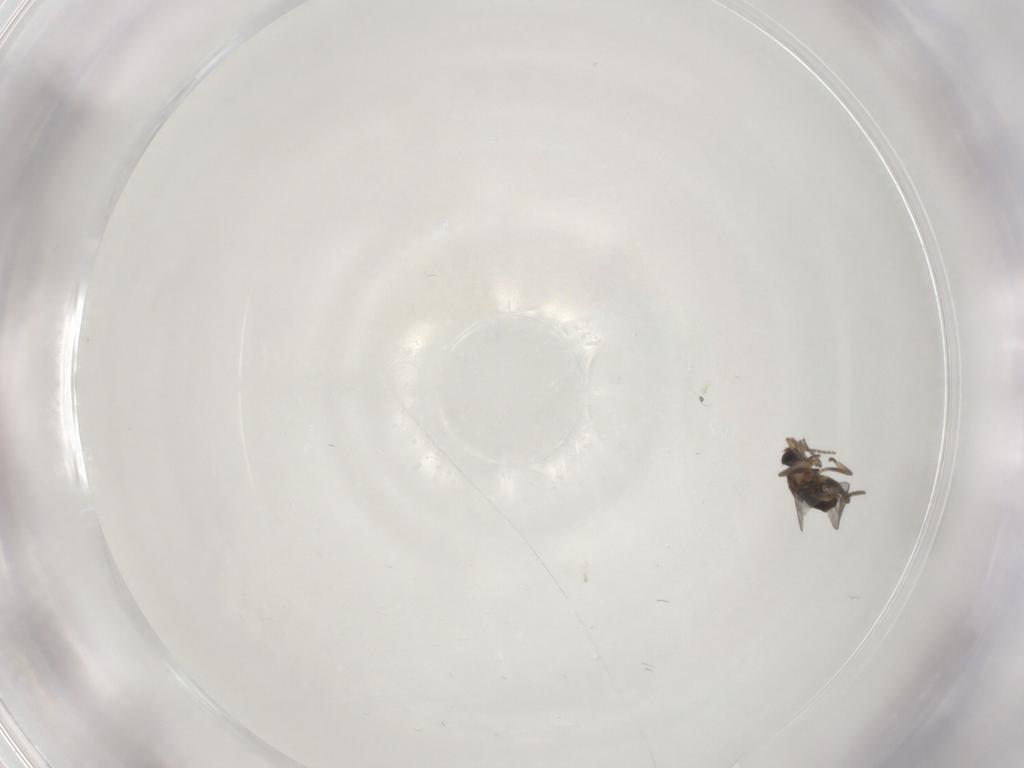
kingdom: Animalia
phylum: Arthropoda
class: Insecta
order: Diptera
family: Phoridae
